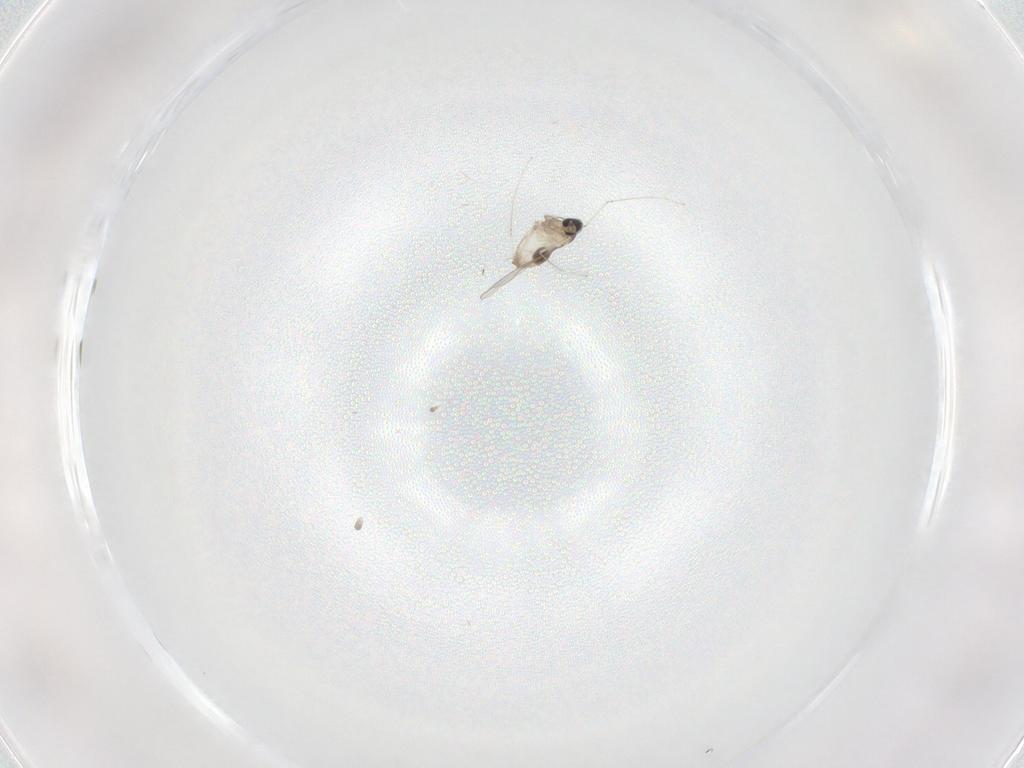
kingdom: Animalia
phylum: Arthropoda
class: Insecta
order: Diptera
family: Cecidomyiidae
